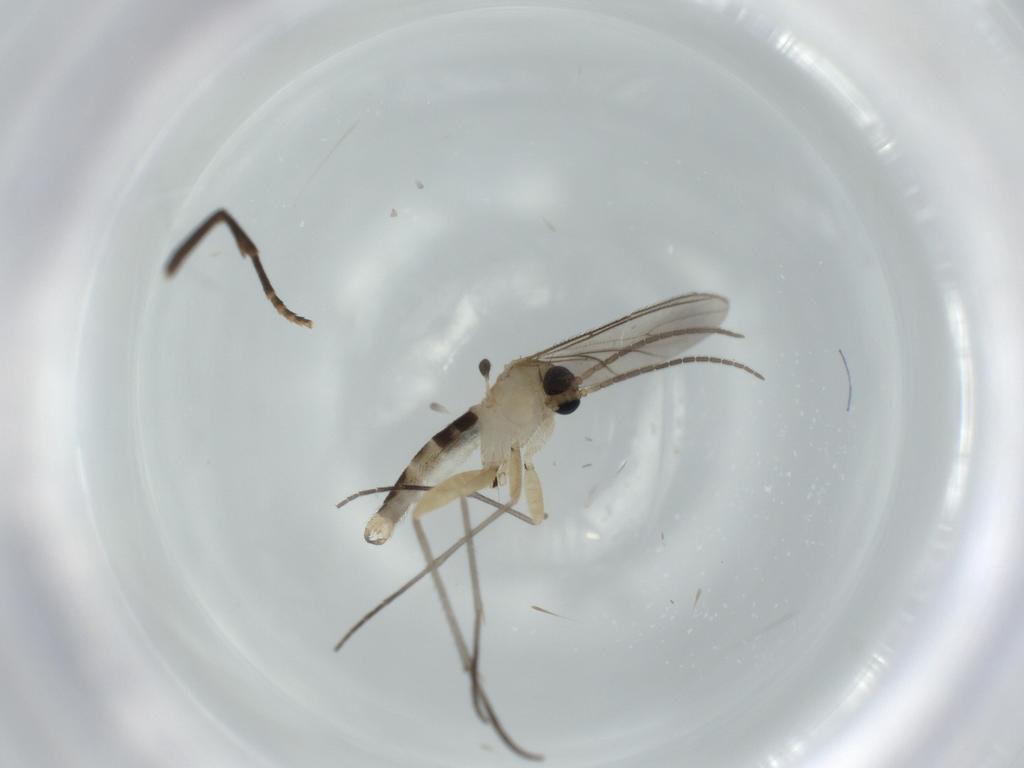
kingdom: Animalia
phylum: Arthropoda
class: Insecta
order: Diptera
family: Sciaridae
